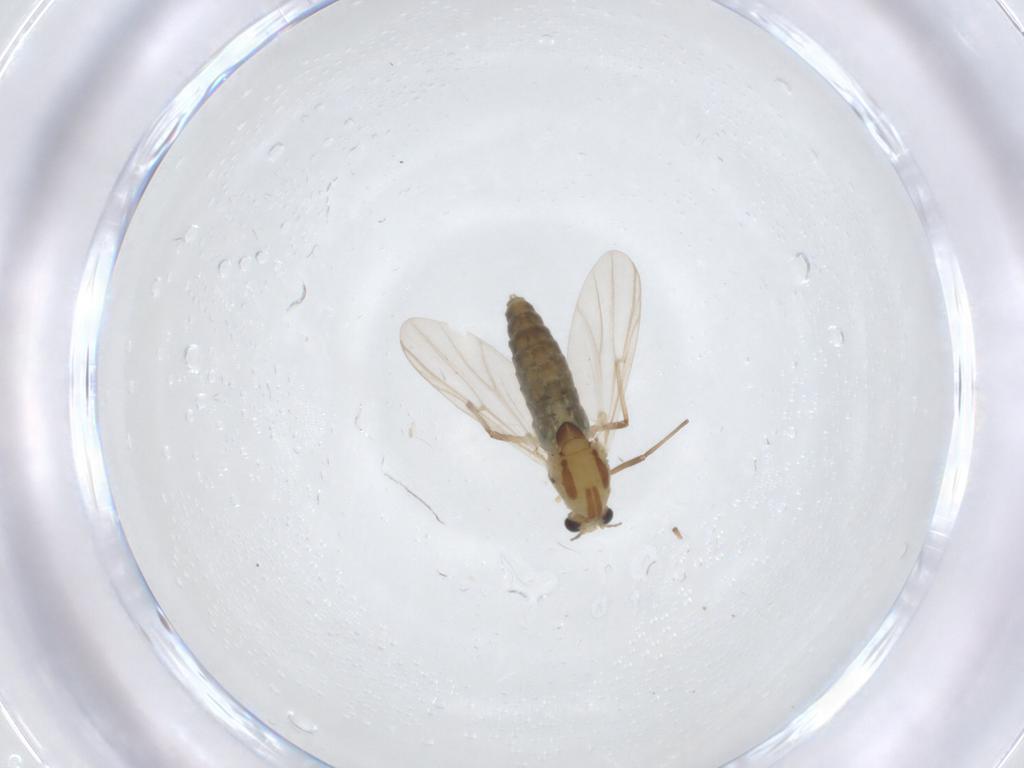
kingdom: Animalia
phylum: Arthropoda
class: Insecta
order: Diptera
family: Chironomidae
